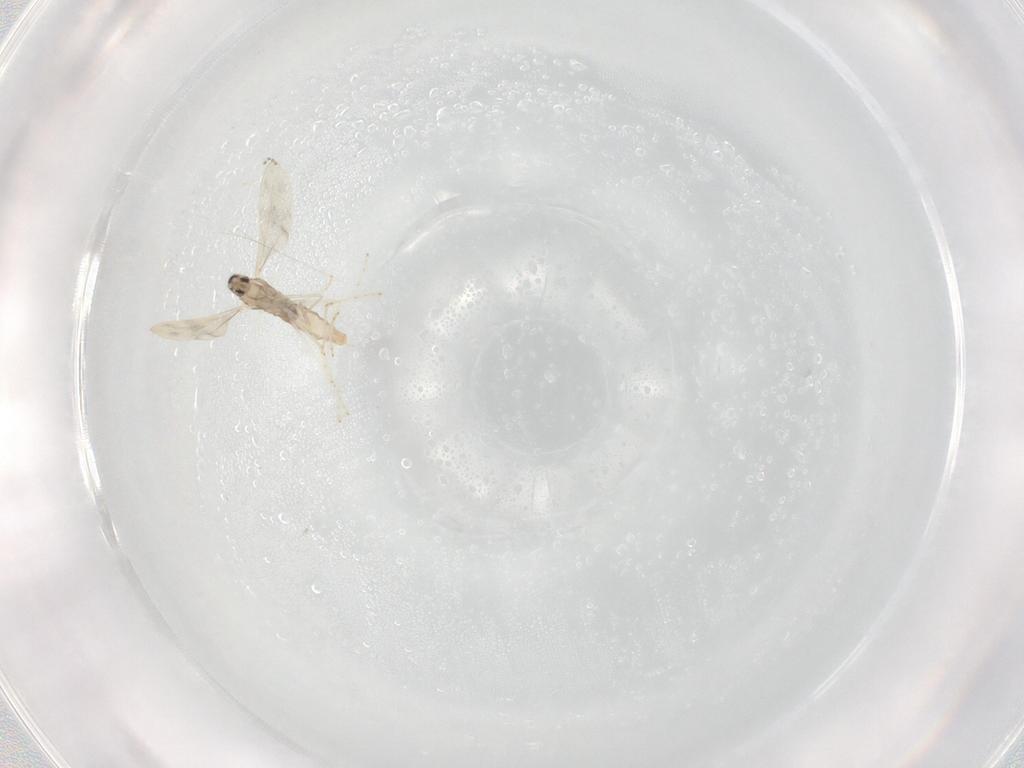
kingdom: Animalia
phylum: Arthropoda
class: Insecta
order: Diptera
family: Cecidomyiidae
